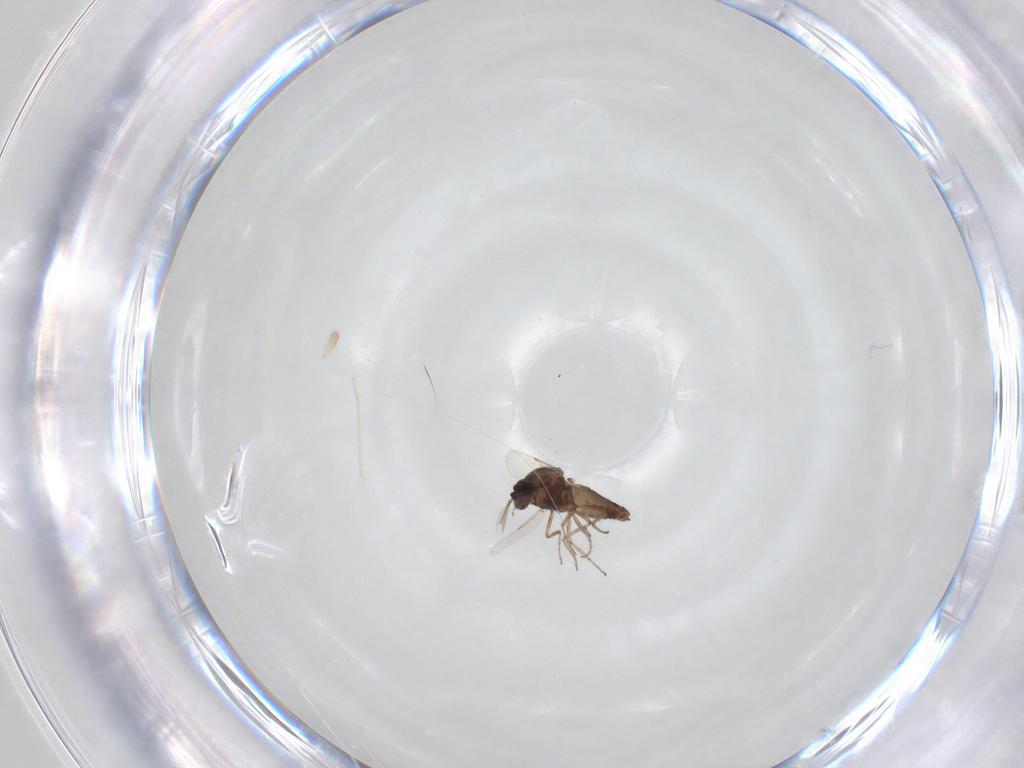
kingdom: Animalia
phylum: Arthropoda
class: Insecta
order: Diptera
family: Ceratopogonidae
